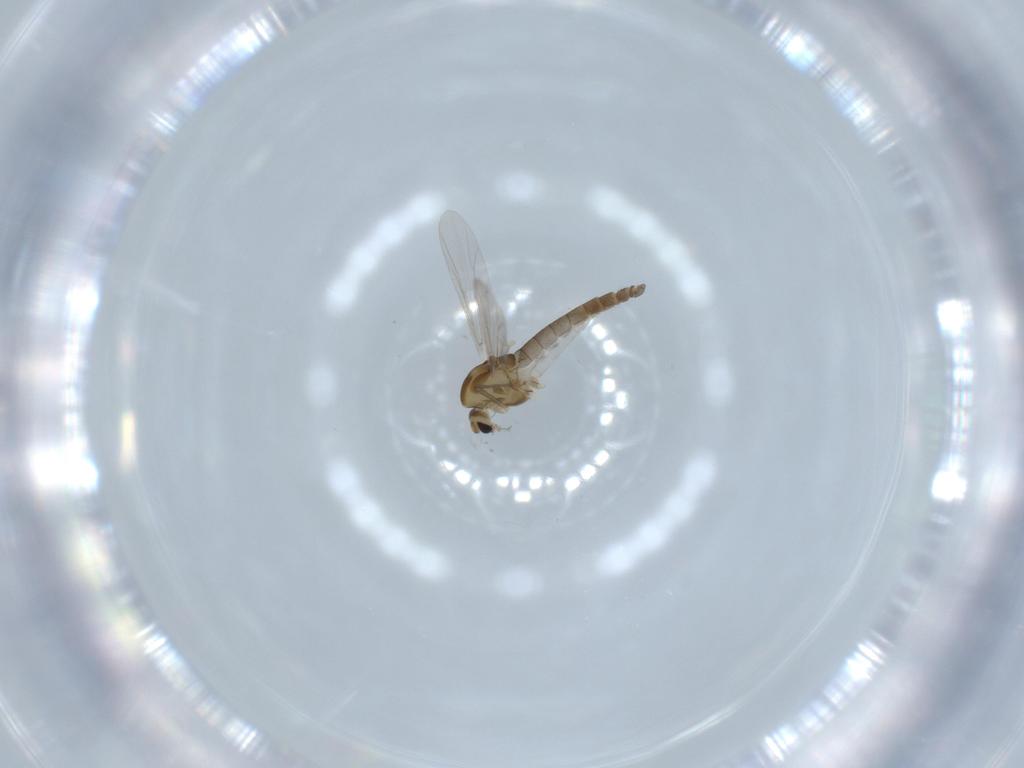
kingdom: Animalia
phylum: Arthropoda
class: Insecta
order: Diptera
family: Chironomidae
